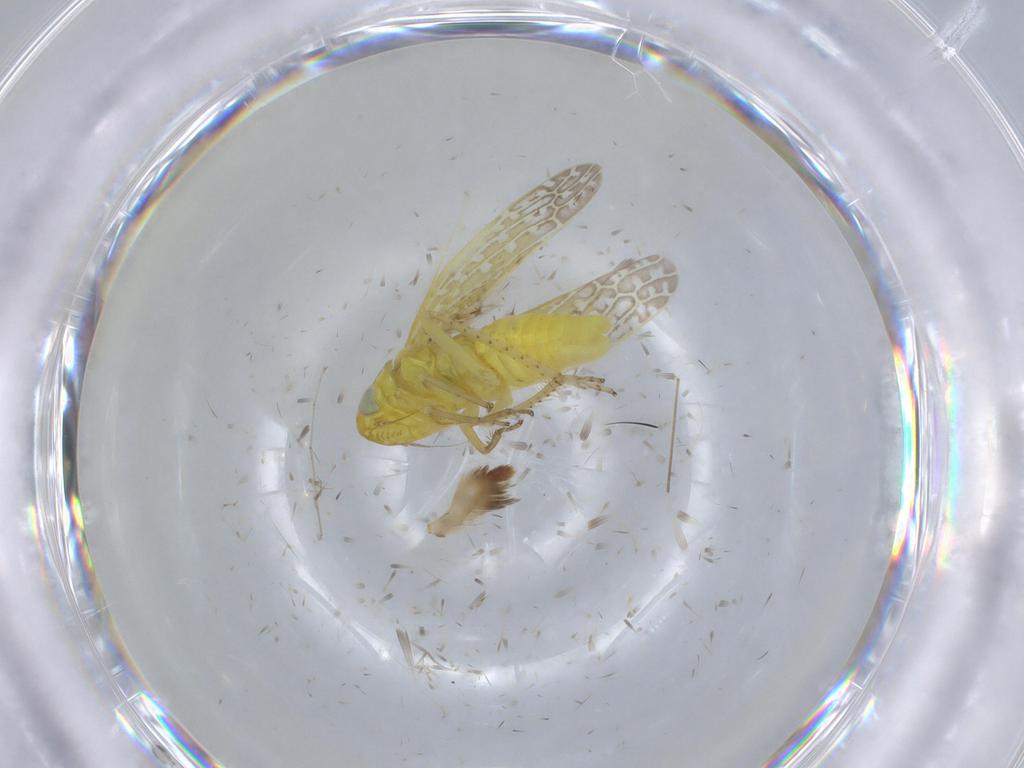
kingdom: Animalia
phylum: Arthropoda
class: Insecta
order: Hemiptera
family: Cicadellidae
